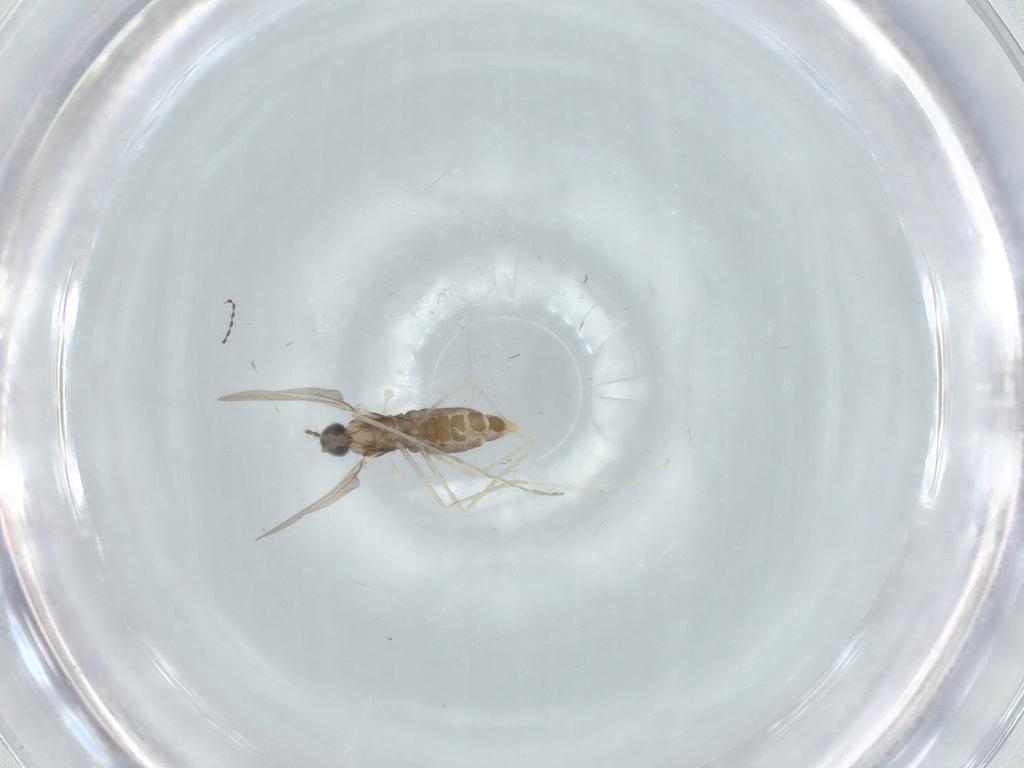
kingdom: Animalia
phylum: Arthropoda
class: Insecta
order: Diptera
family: Cecidomyiidae
